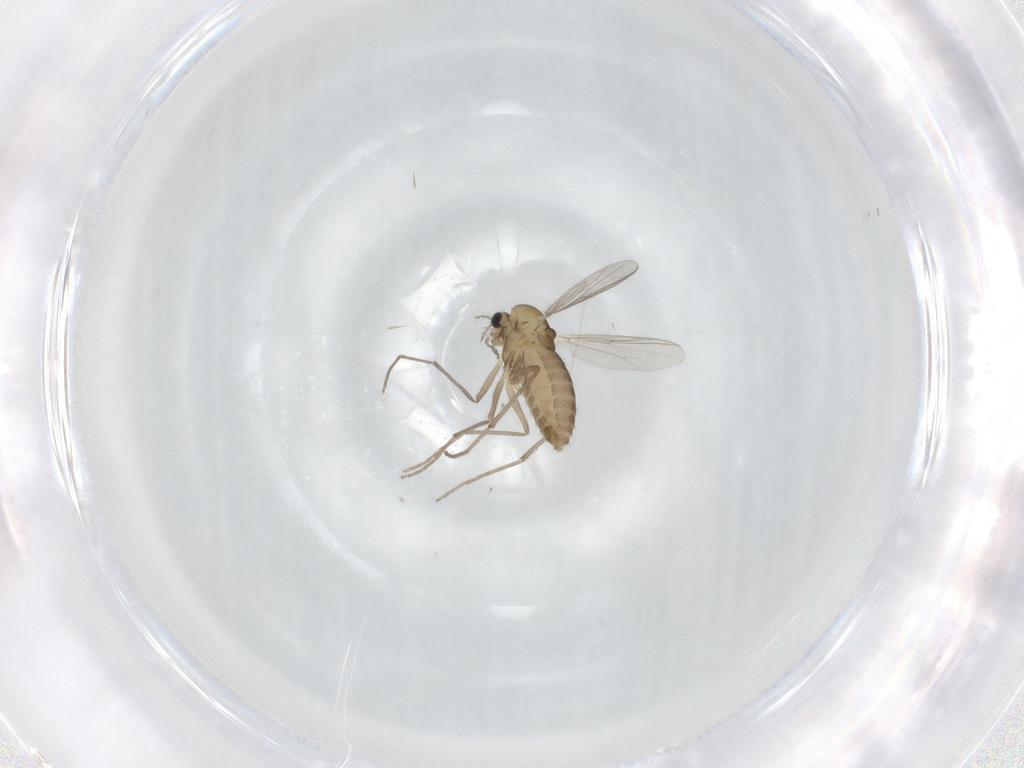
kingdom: Animalia
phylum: Arthropoda
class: Insecta
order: Diptera
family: Chironomidae
